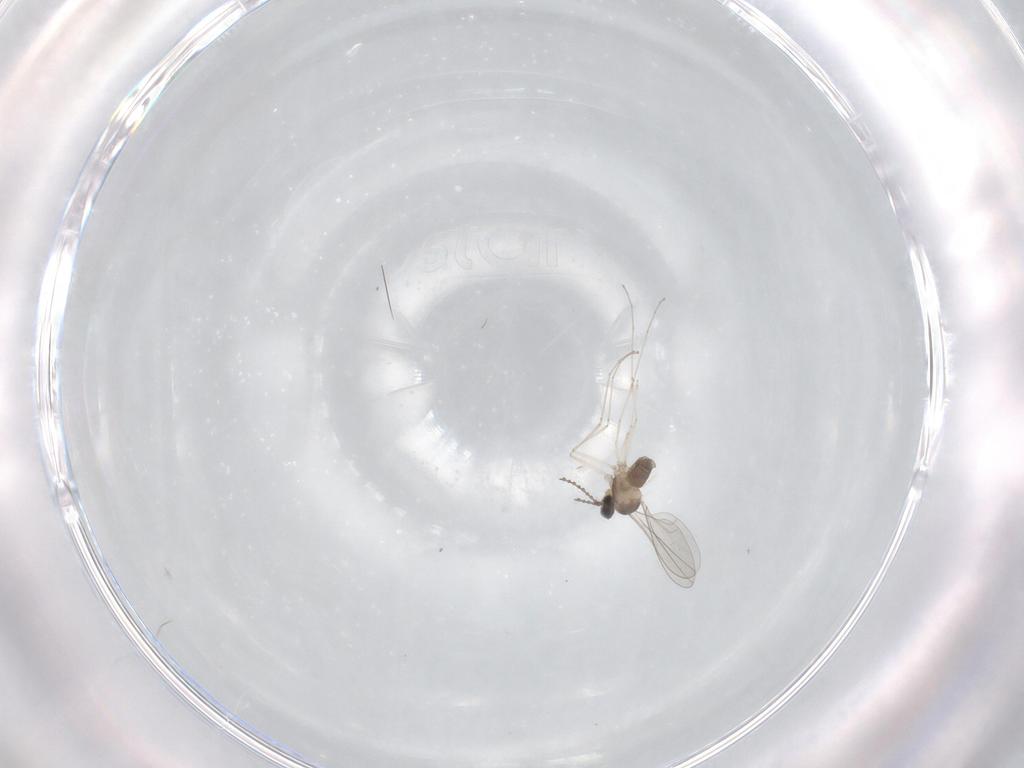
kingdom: Animalia
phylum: Arthropoda
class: Insecta
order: Diptera
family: Cecidomyiidae
